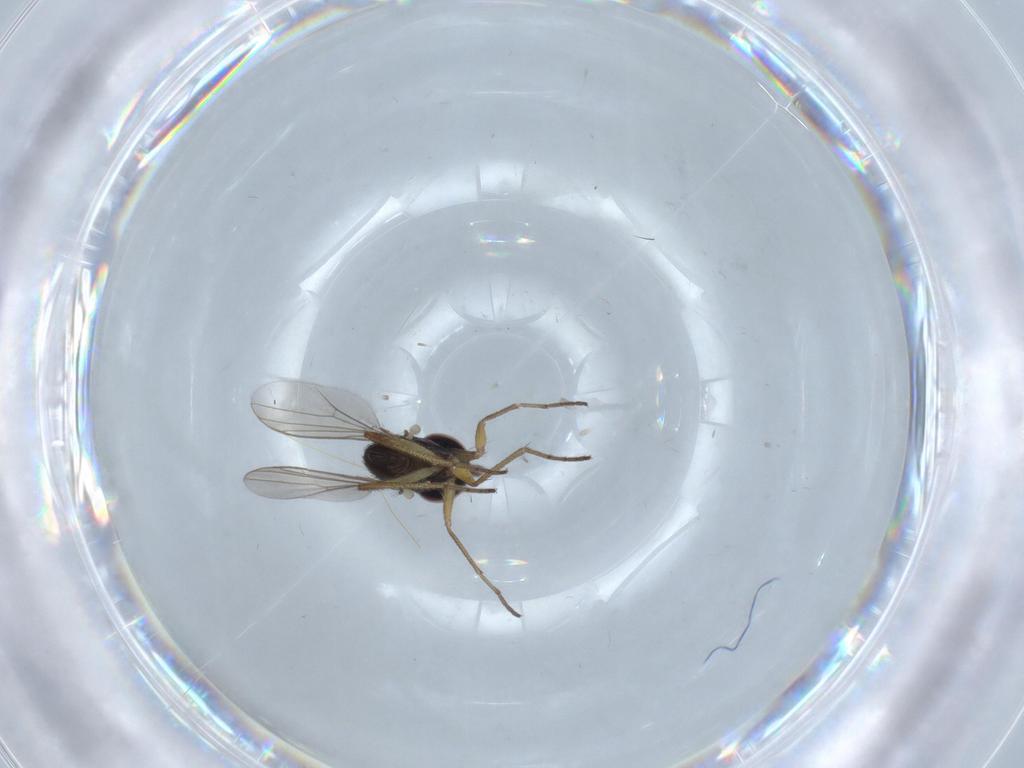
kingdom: Animalia
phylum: Arthropoda
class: Insecta
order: Diptera
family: Dolichopodidae
